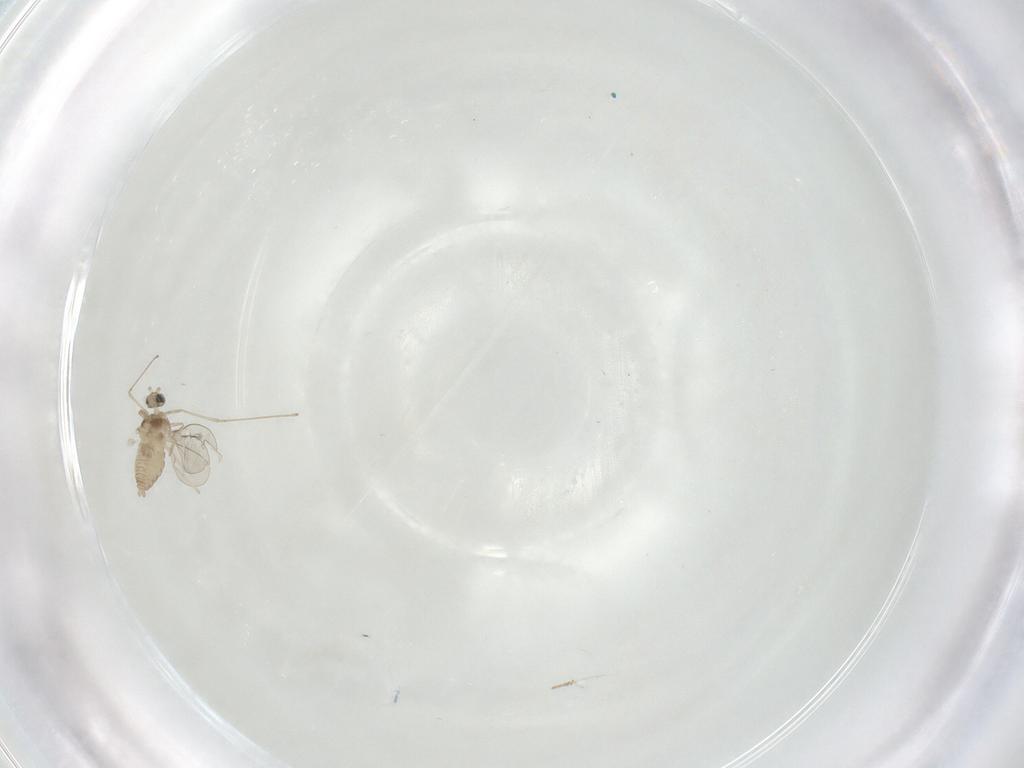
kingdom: Animalia
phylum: Arthropoda
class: Insecta
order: Diptera
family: Cecidomyiidae
